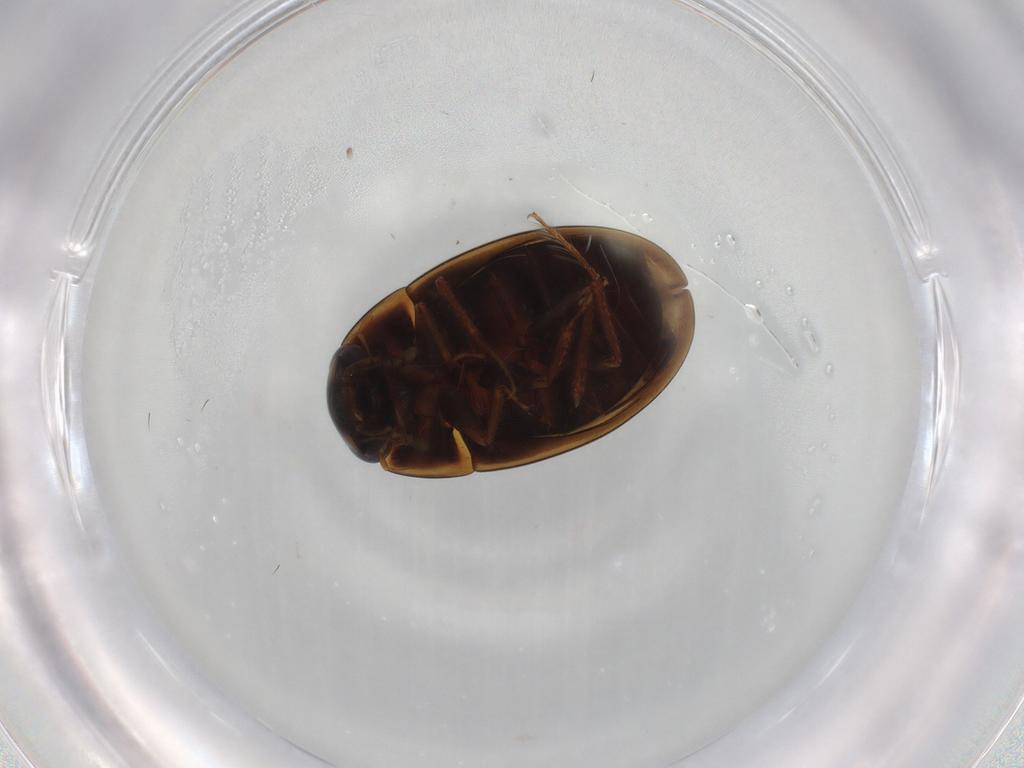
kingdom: Animalia
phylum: Arthropoda
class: Insecta
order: Coleoptera
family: Hydrophilidae
